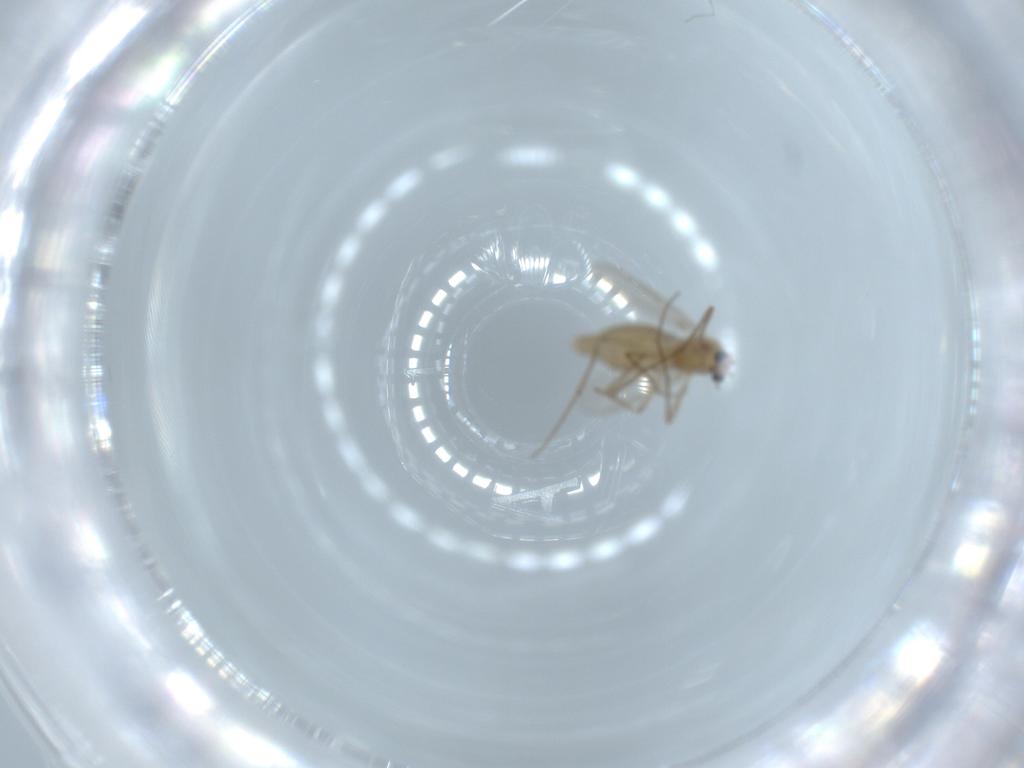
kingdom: Animalia
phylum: Arthropoda
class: Insecta
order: Diptera
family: Chironomidae
